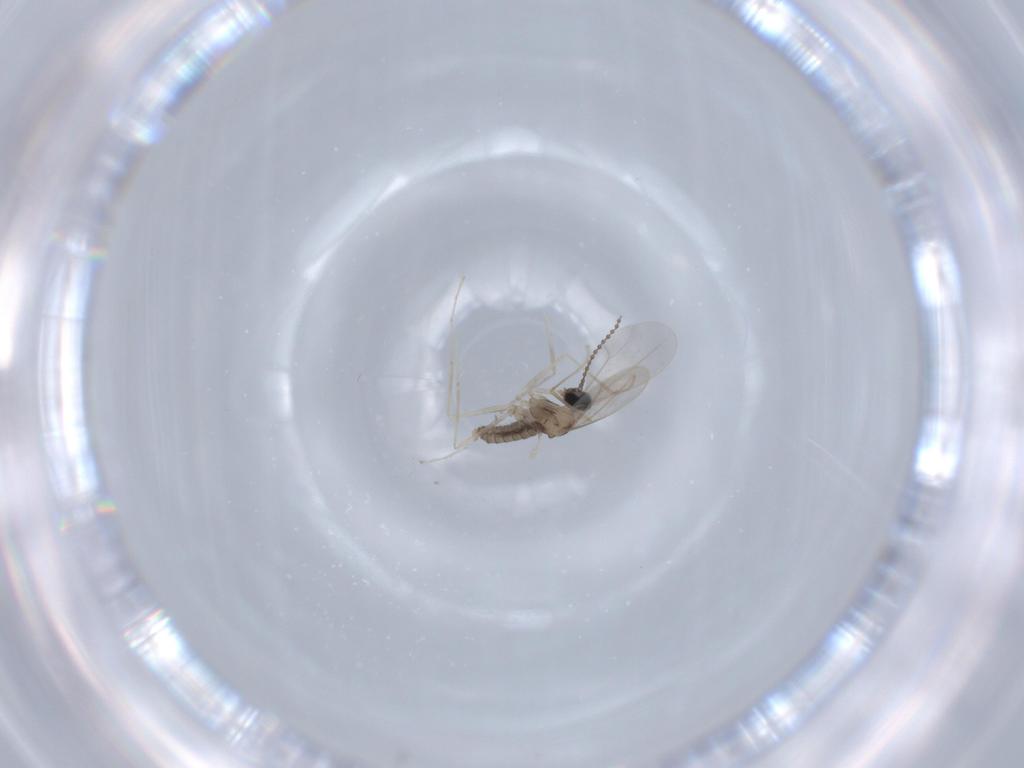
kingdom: Animalia
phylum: Arthropoda
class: Insecta
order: Diptera
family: Cecidomyiidae
